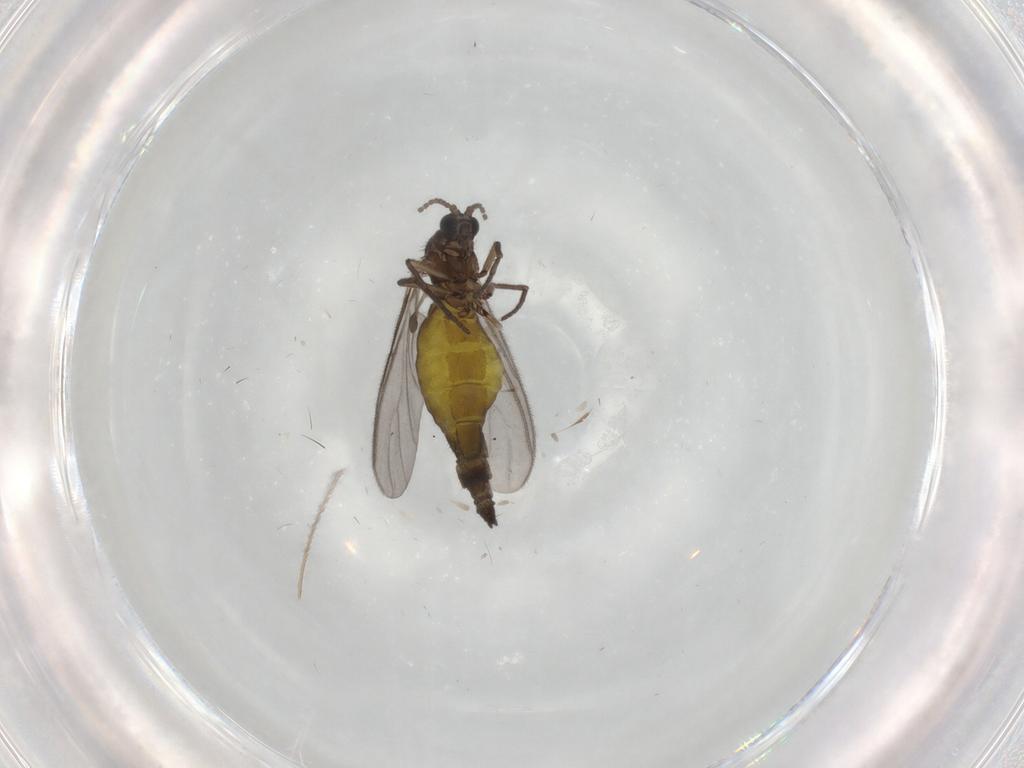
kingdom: Animalia
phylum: Arthropoda
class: Insecta
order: Diptera
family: Sciaridae
